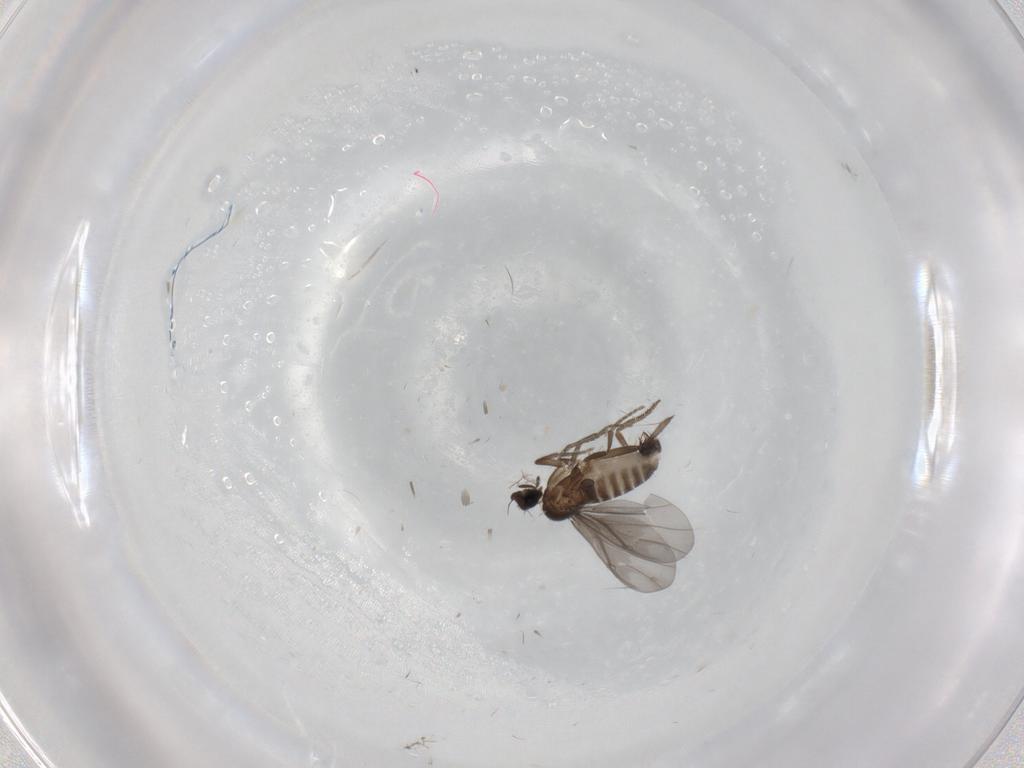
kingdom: Animalia
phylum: Arthropoda
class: Insecta
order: Diptera
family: Phoridae
